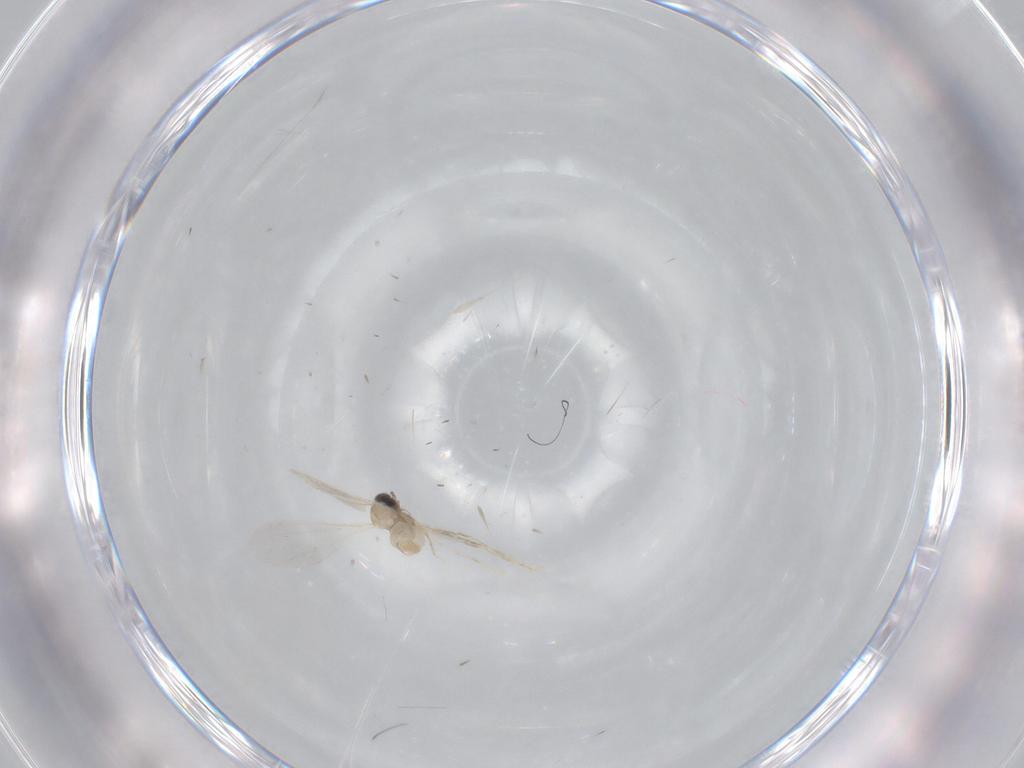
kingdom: Animalia
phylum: Arthropoda
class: Insecta
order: Diptera
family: Cecidomyiidae
